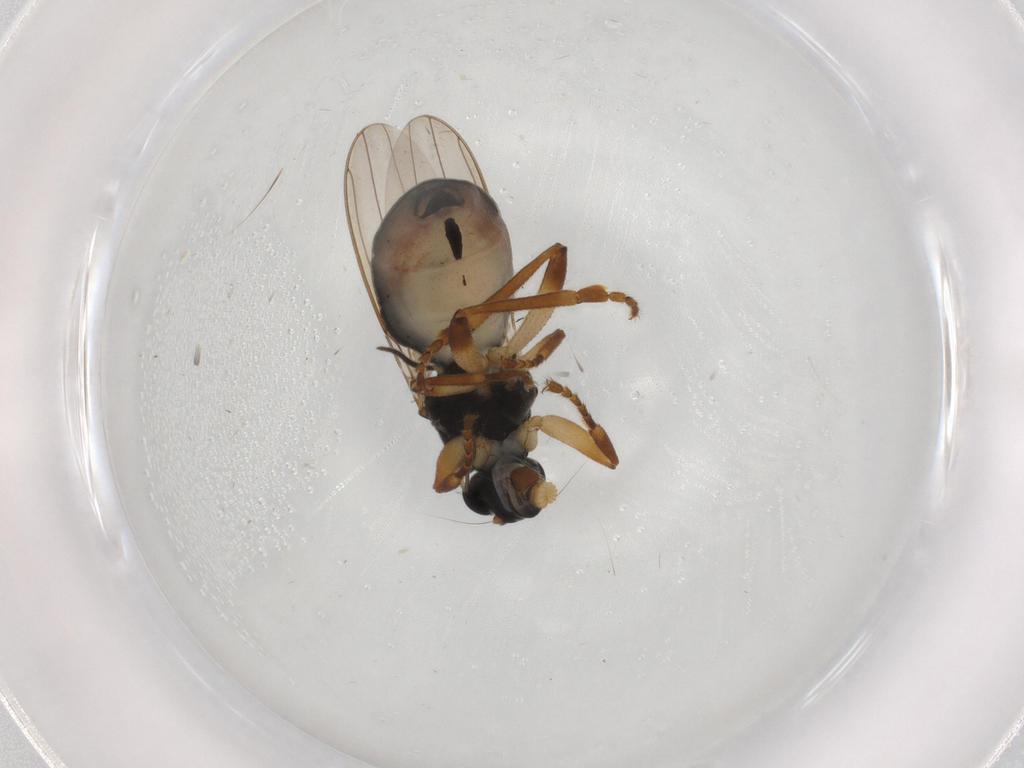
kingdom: Animalia
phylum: Arthropoda
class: Insecta
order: Diptera
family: Sciaridae
